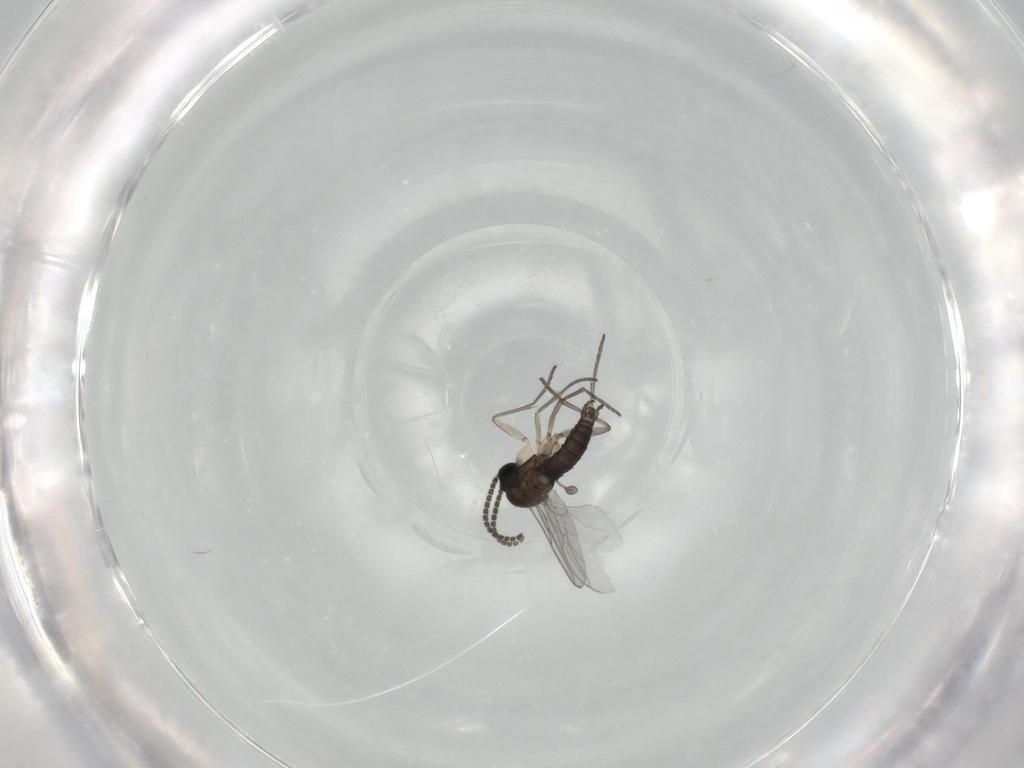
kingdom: Animalia
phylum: Arthropoda
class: Insecta
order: Diptera
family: Sciaridae
